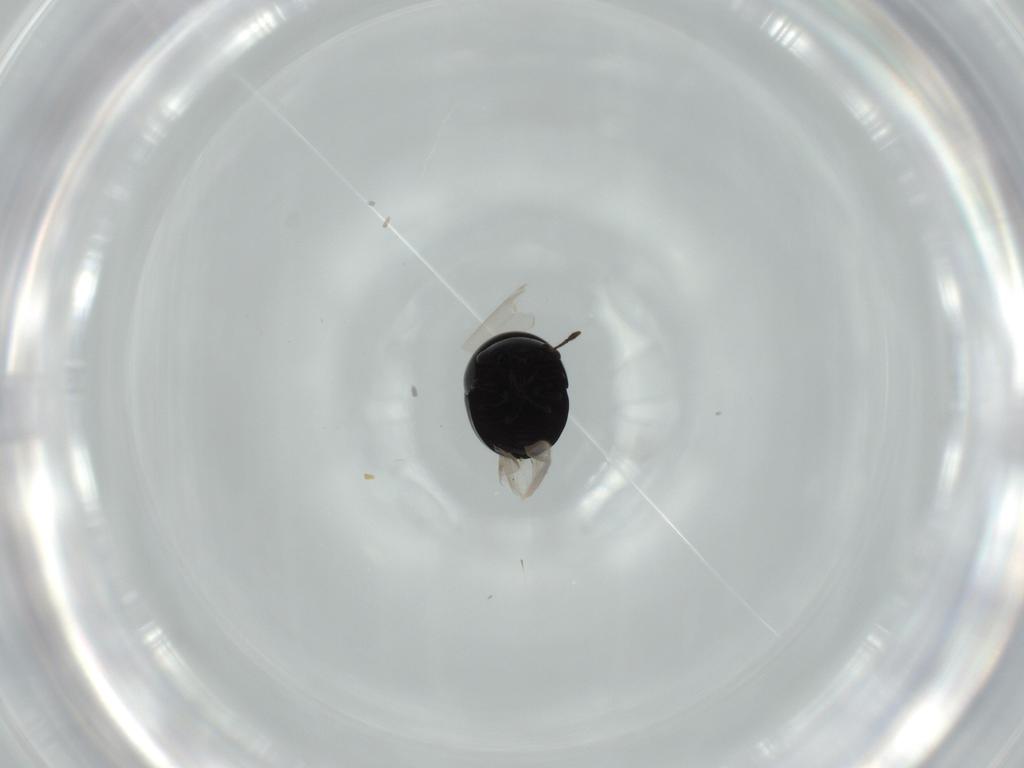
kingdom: Animalia
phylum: Arthropoda
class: Insecta
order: Coleoptera
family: Cybocephalidae
